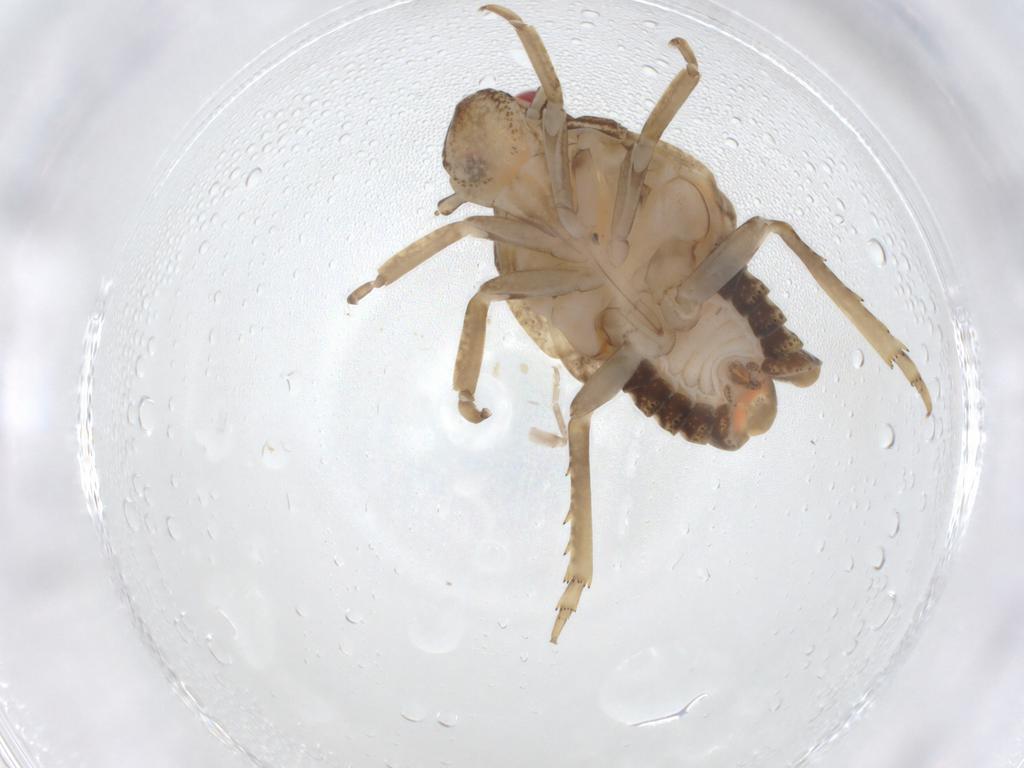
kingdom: Animalia
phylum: Arthropoda
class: Insecta
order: Hemiptera
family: Flatidae
